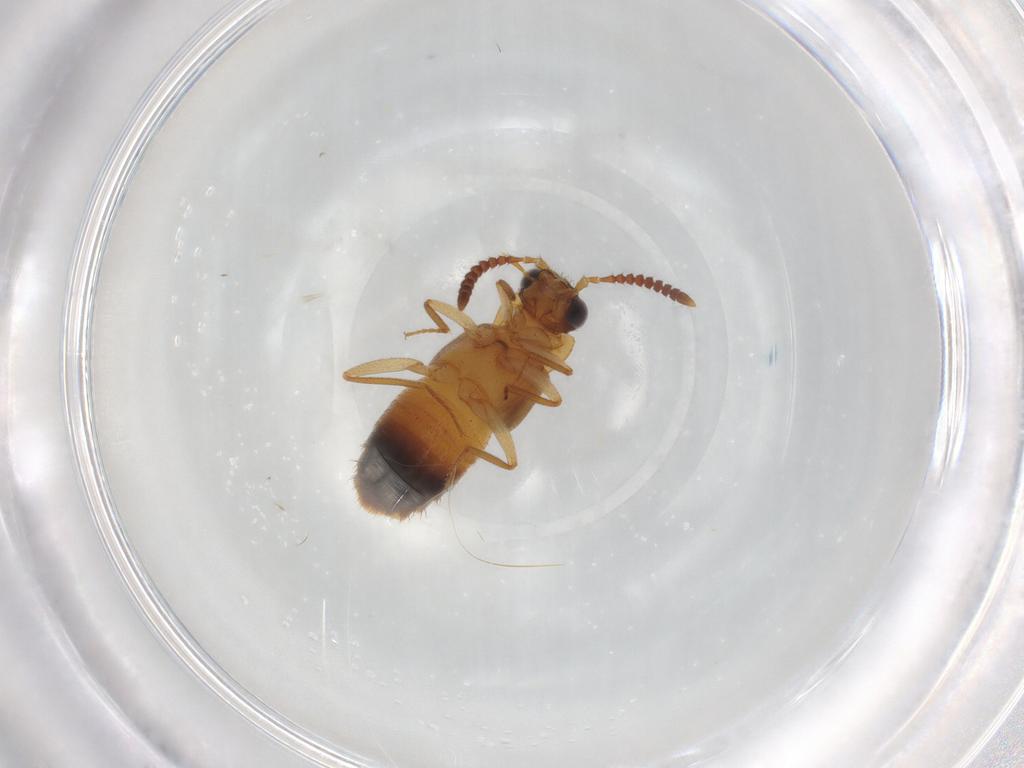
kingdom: Animalia
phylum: Arthropoda
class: Insecta
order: Coleoptera
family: Staphylinidae
